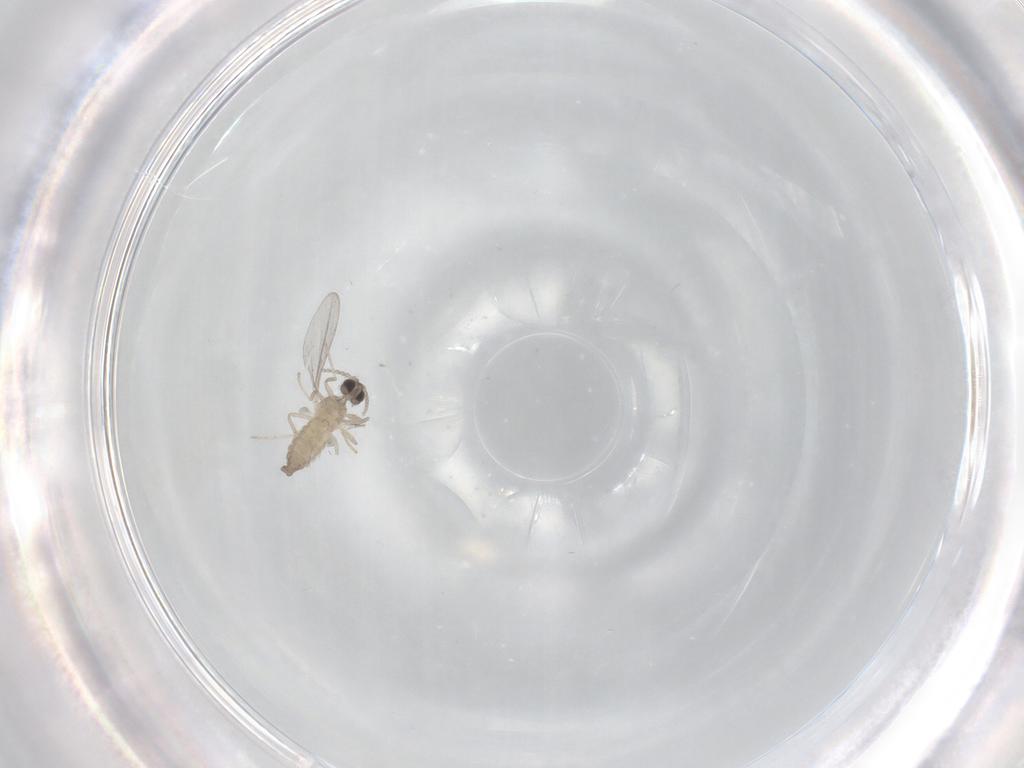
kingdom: Animalia
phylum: Arthropoda
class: Insecta
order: Diptera
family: Cecidomyiidae
